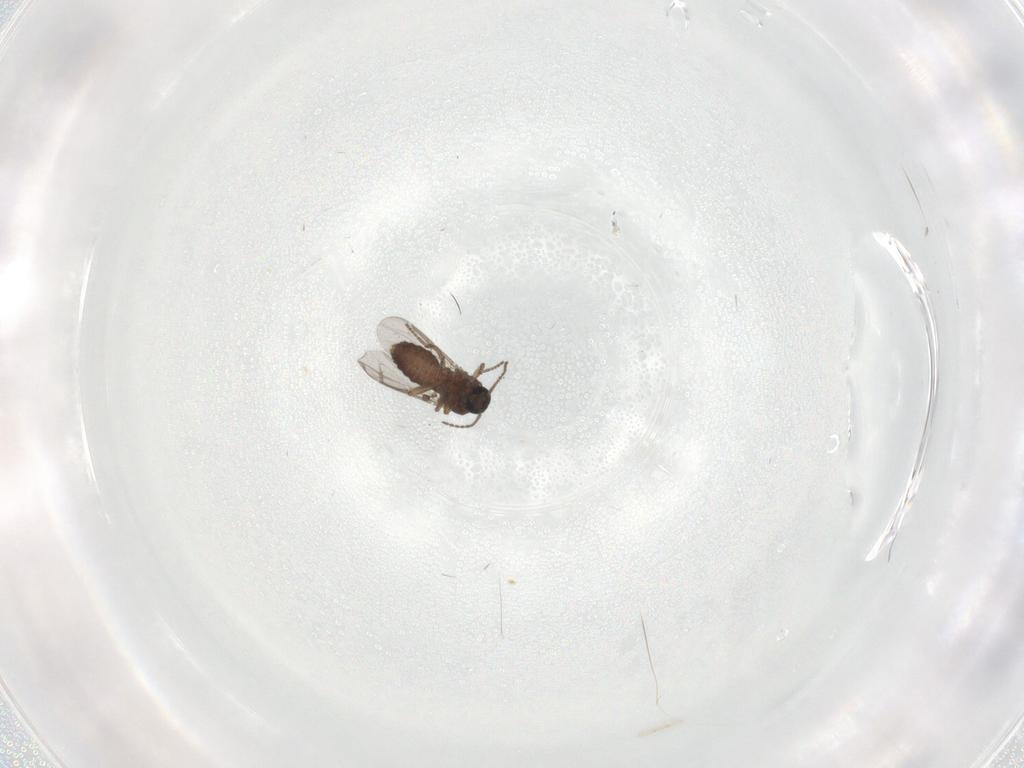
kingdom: Animalia
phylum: Arthropoda
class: Insecta
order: Diptera
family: Ceratopogonidae
